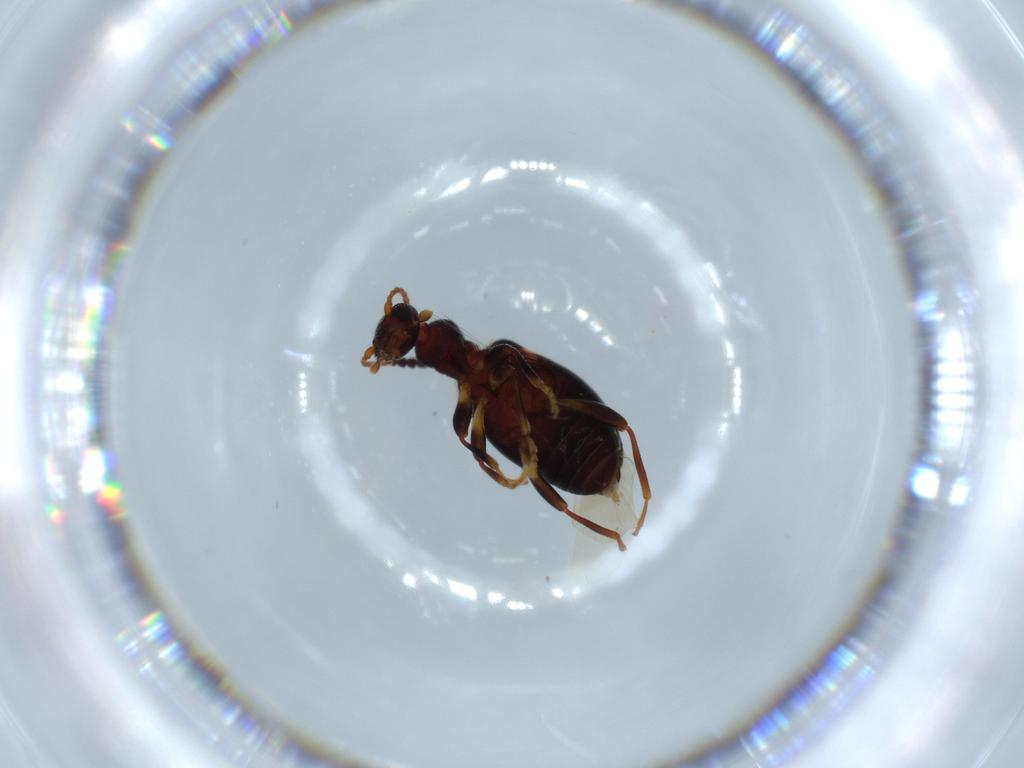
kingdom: Animalia
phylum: Arthropoda
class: Insecta
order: Coleoptera
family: Anthicidae
